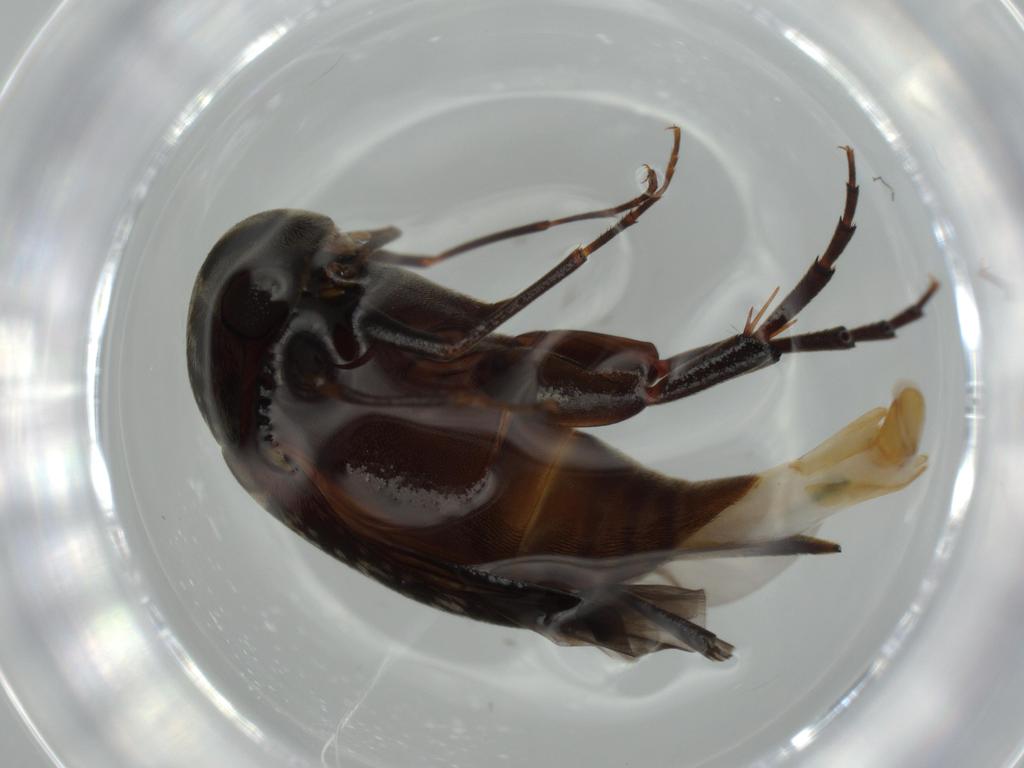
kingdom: Animalia
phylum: Arthropoda
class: Insecta
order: Coleoptera
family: Mordellidae
